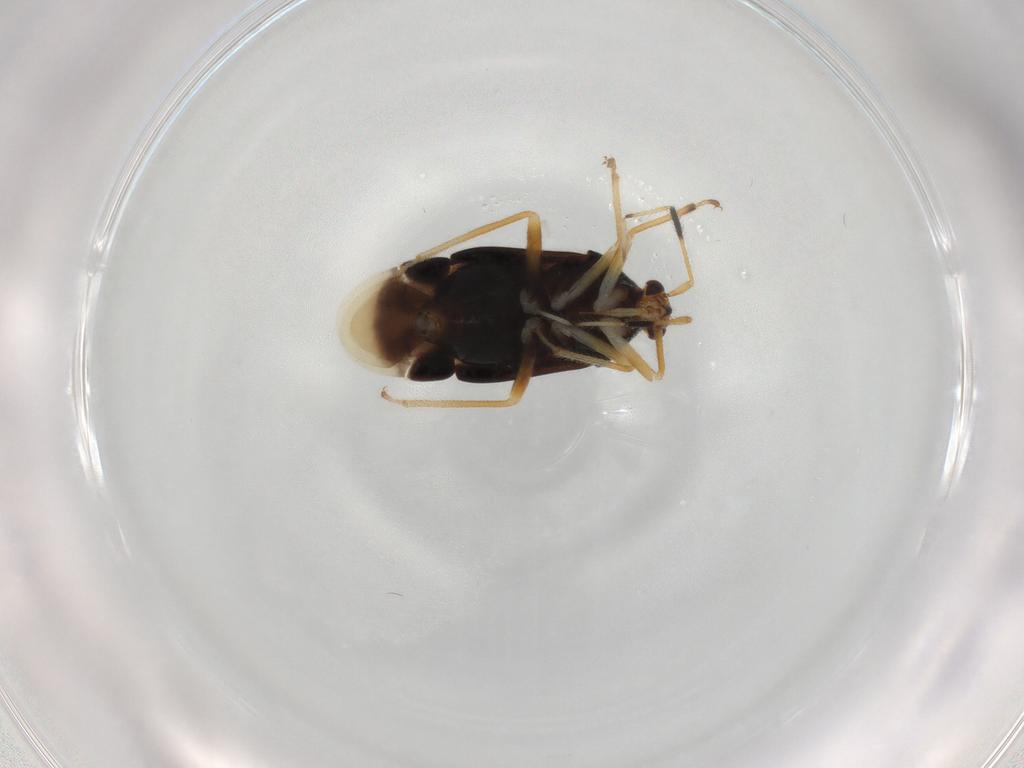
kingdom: Animalia
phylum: Arthropoda
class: Insecta
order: Hemiptera
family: Miridae
